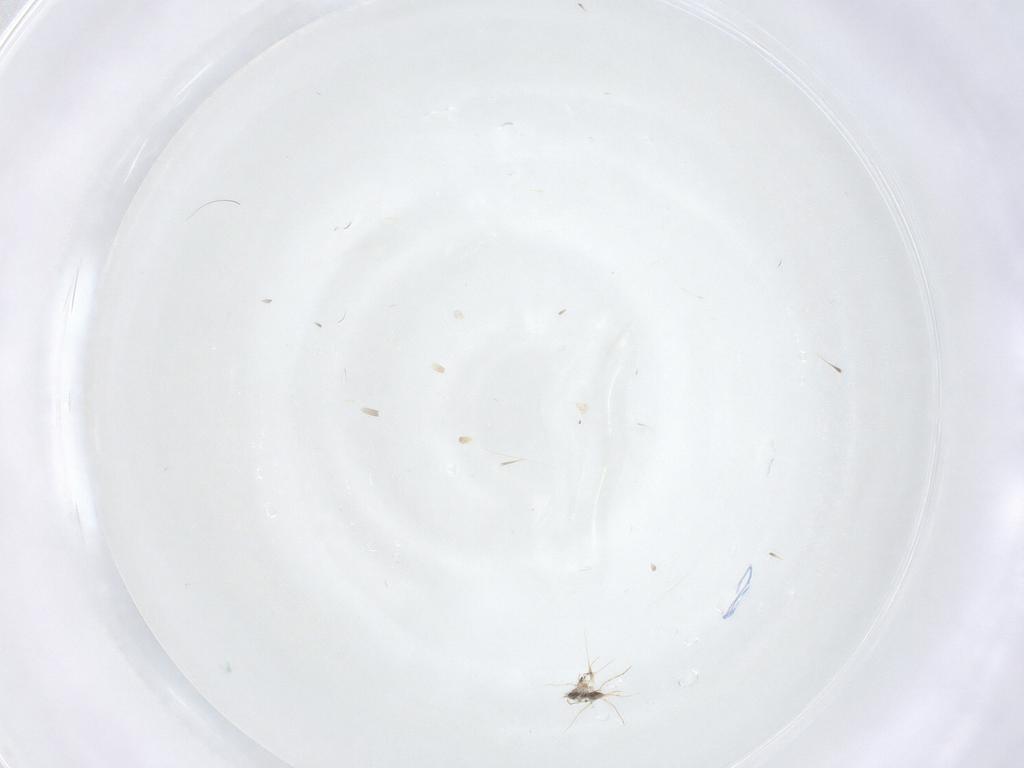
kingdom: Animalia
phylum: Arthropoda
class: Insecta
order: Blattodea
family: Ectobiidae
